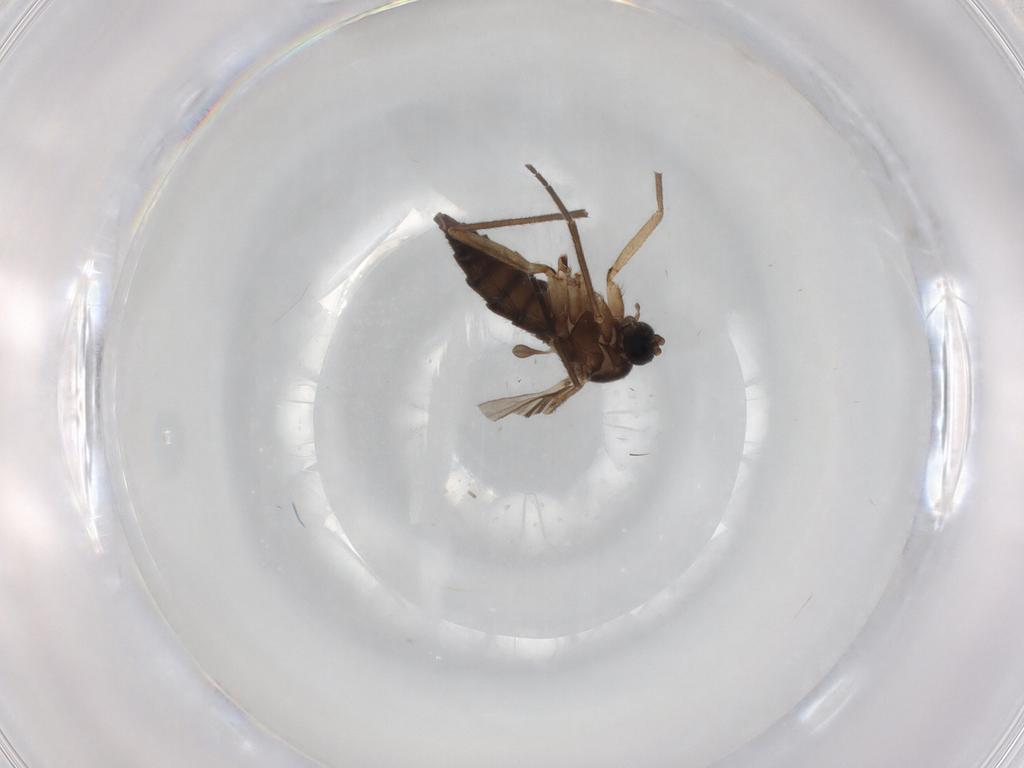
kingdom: Animalia
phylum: Arthropoda
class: Insecta
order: Diptera
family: Sciaridae
